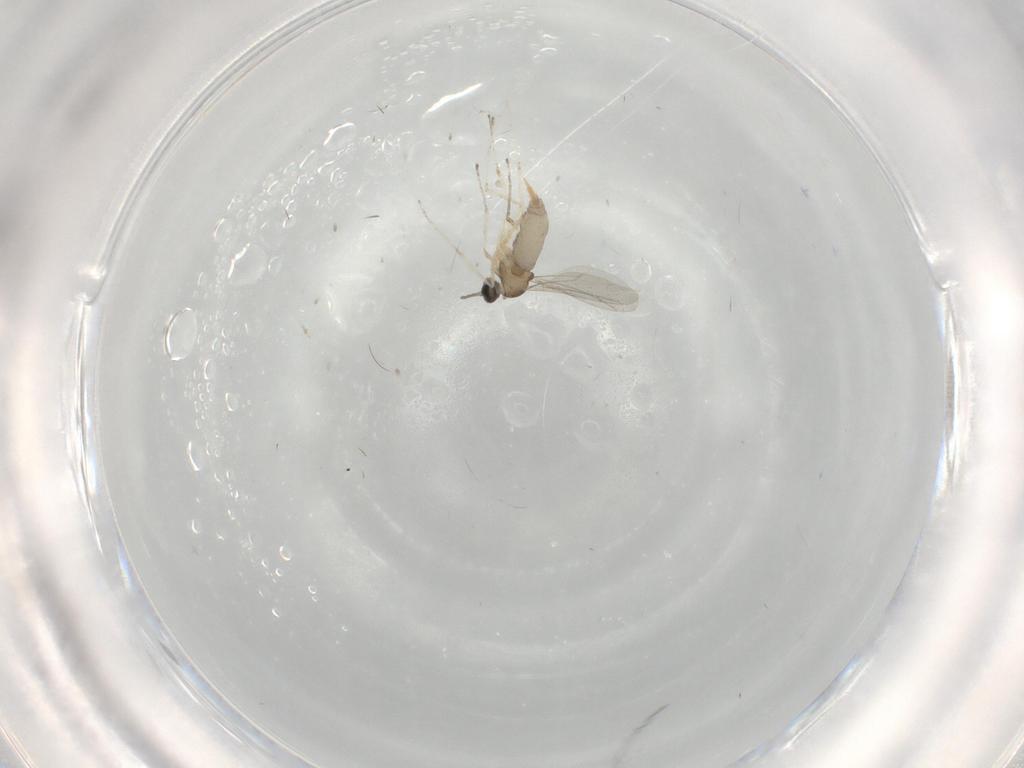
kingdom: Animalia
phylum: Arthropoda
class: Insecta
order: Diptera
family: Cecidomyiidae
